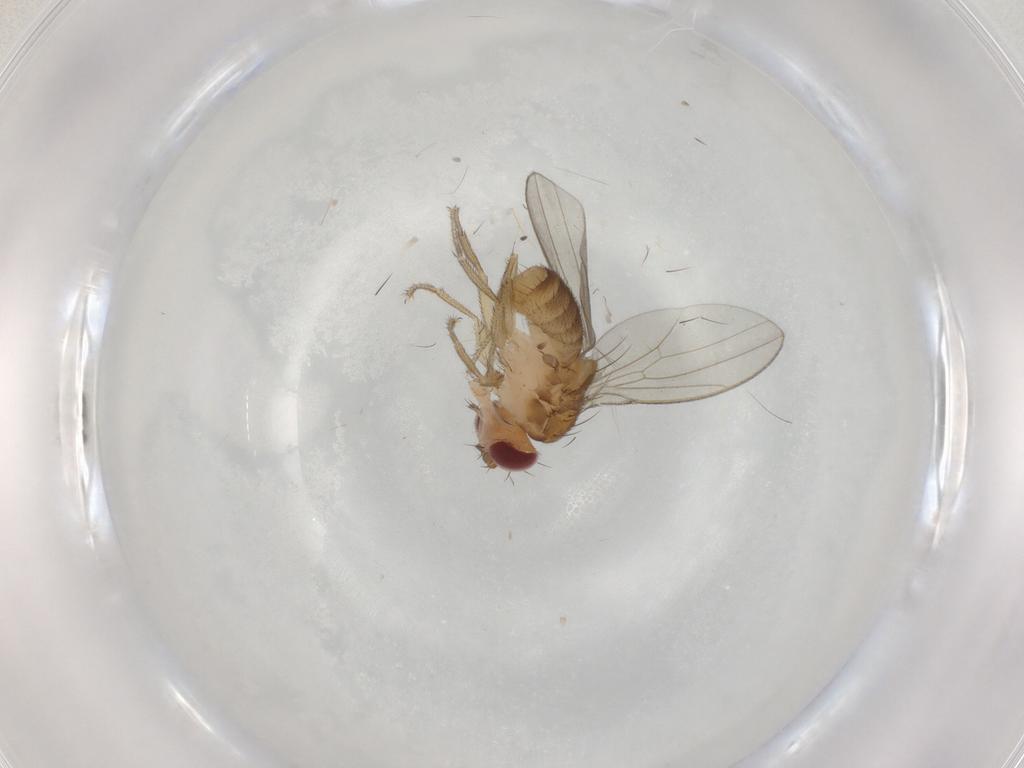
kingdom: Animalia
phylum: Arthropoda
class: Insecta
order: Diptera
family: Drosophilidae
